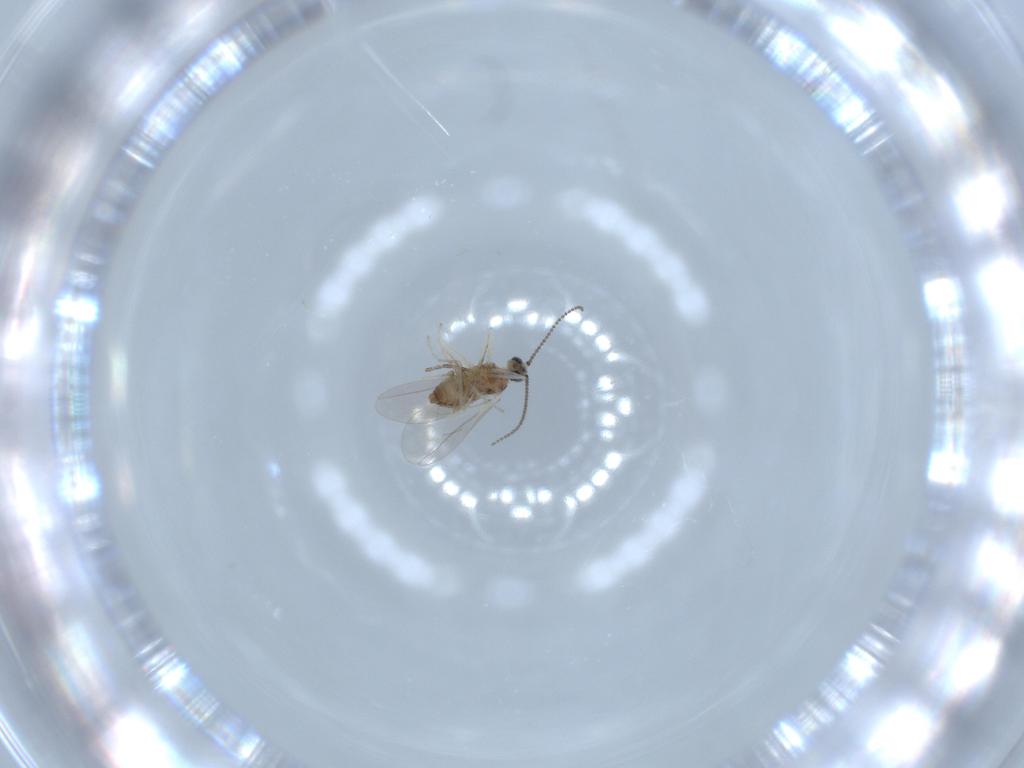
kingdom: Animalia
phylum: Arthropoda
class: Insecta
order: Diptera
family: Cecidomyiidae
